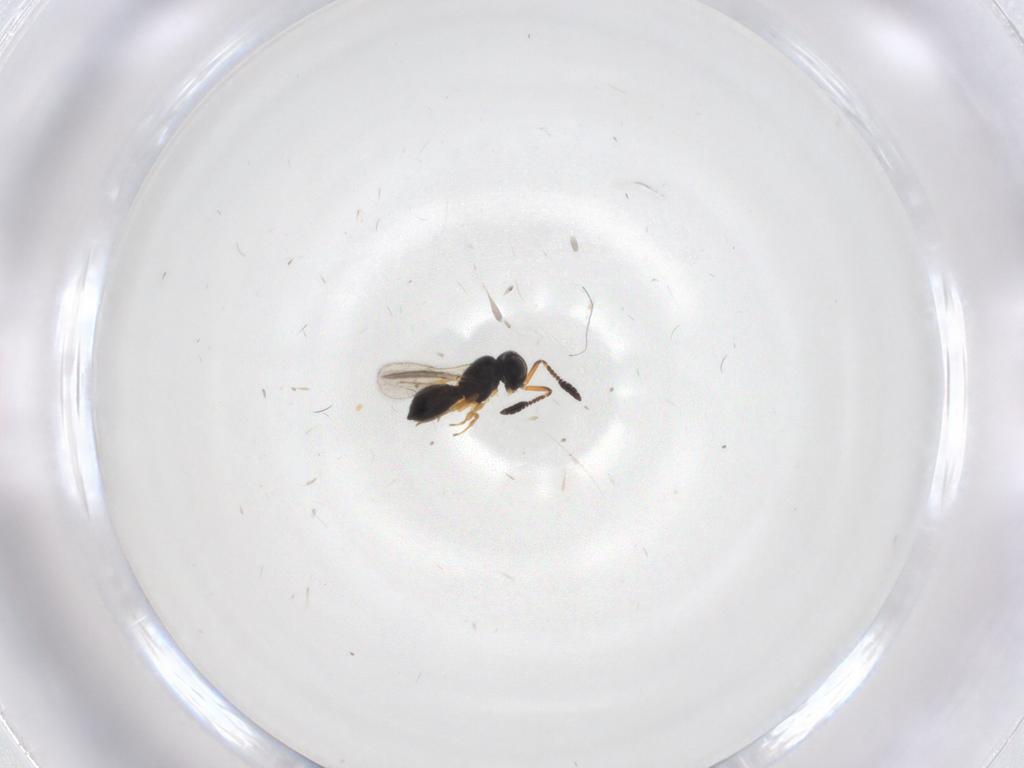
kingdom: Animalia
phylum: Arthropoda
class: Insecta
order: Hymenoptera
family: Scelionidae
